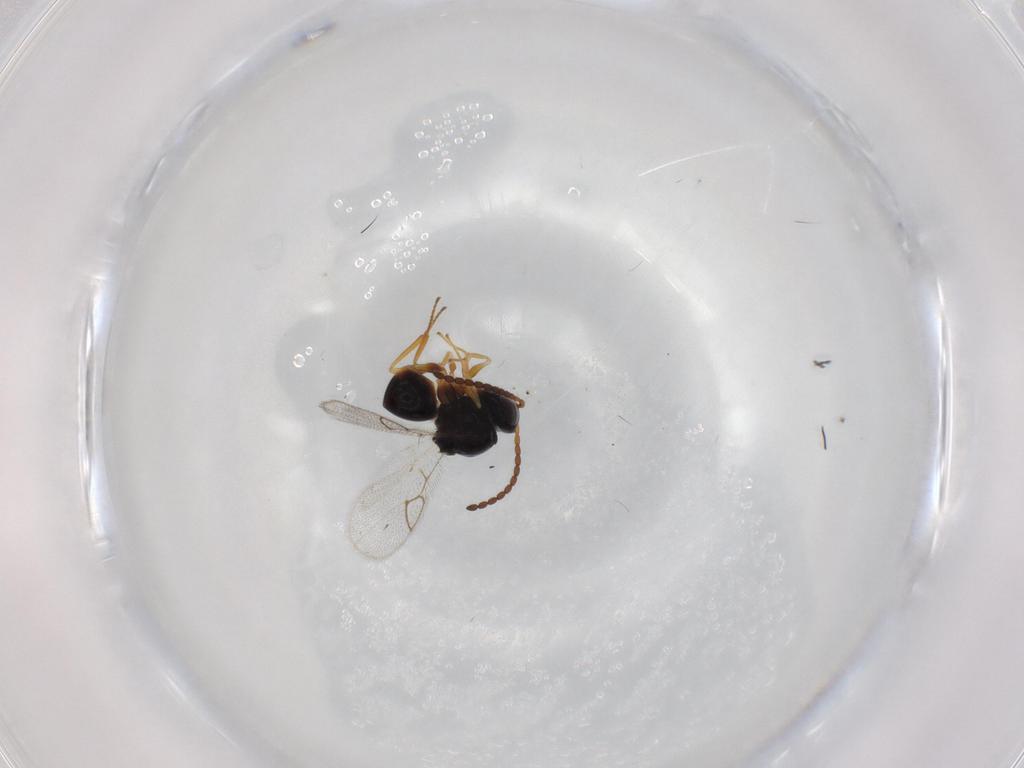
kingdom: Animalia
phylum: Arthropoda
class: Insecta
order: Hymenoptera
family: Figitidae
